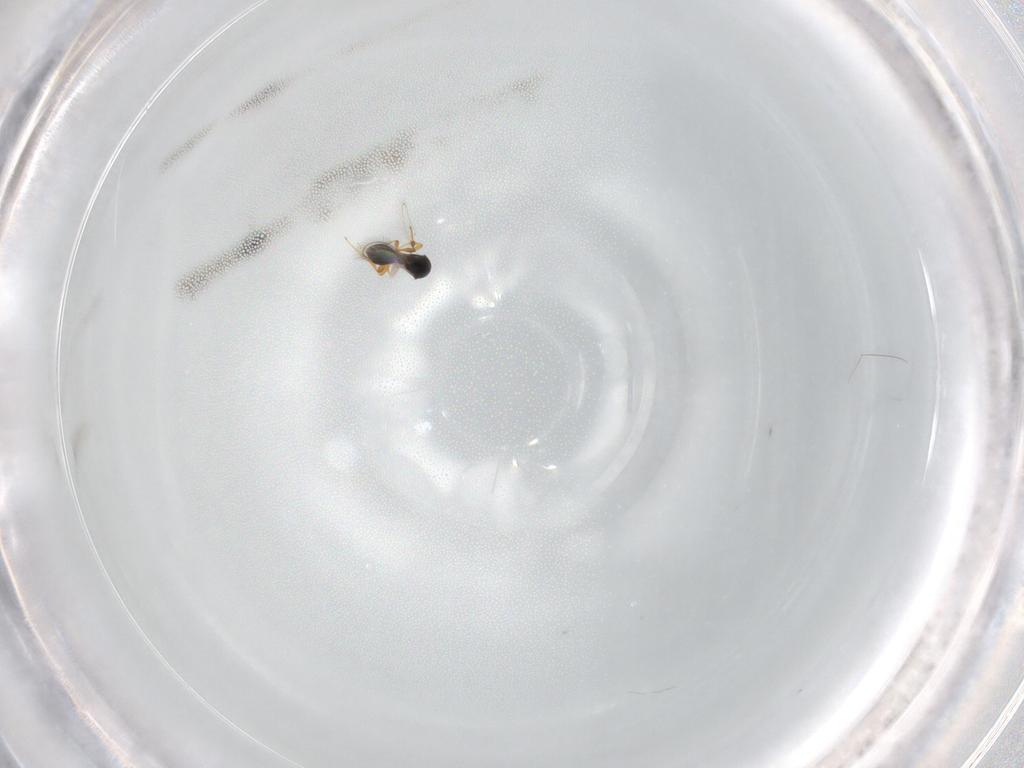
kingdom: Animalia
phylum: Arthropoda
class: Insecta
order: Hymenoptera
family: Platygastridae
